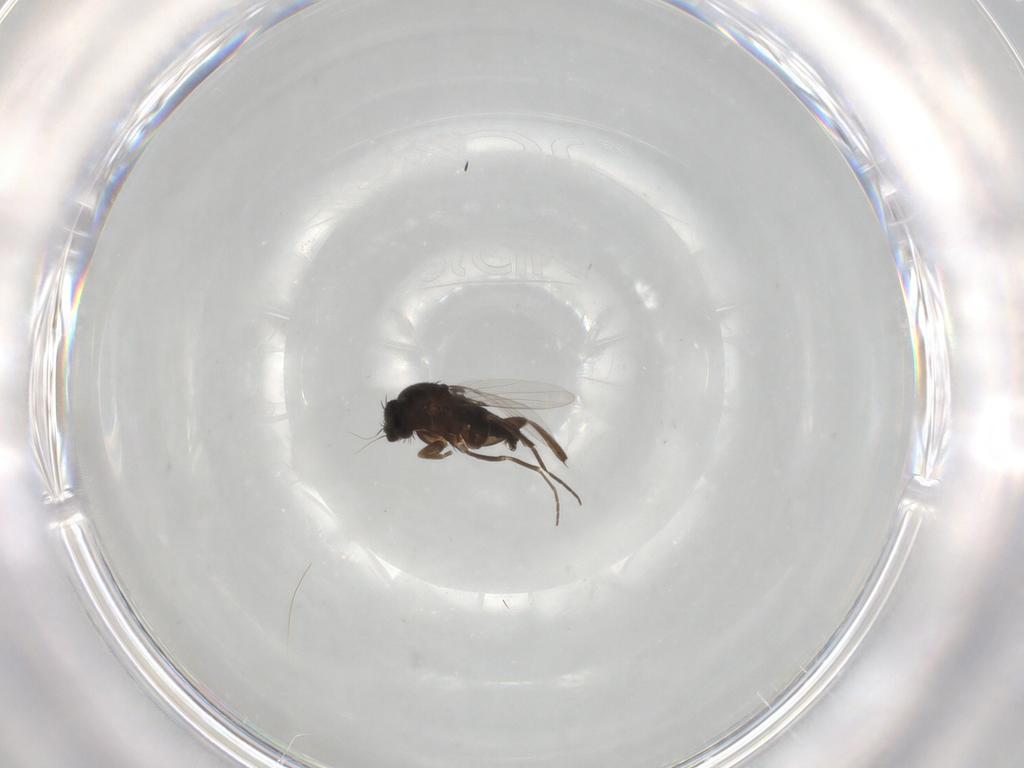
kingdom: Animalia
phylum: Arthropoda
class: Insecta
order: Diptera
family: Phoridae
